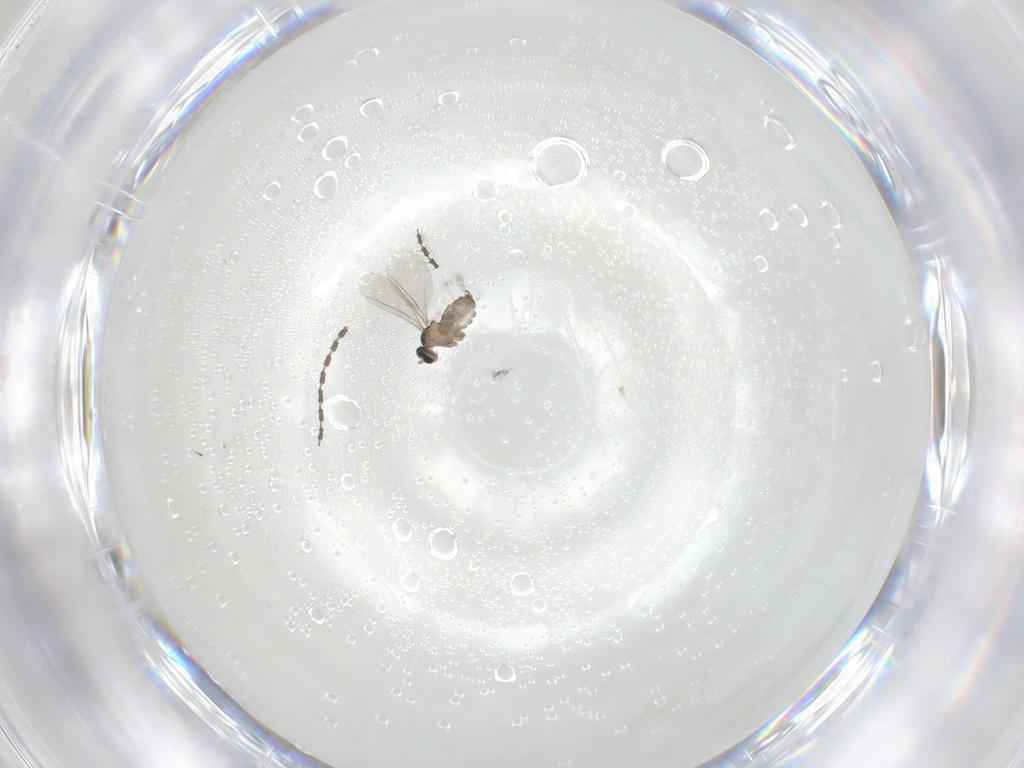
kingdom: Animalia
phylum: Arthropoda
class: Insecta
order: Diptera
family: Cecidomyiidae
